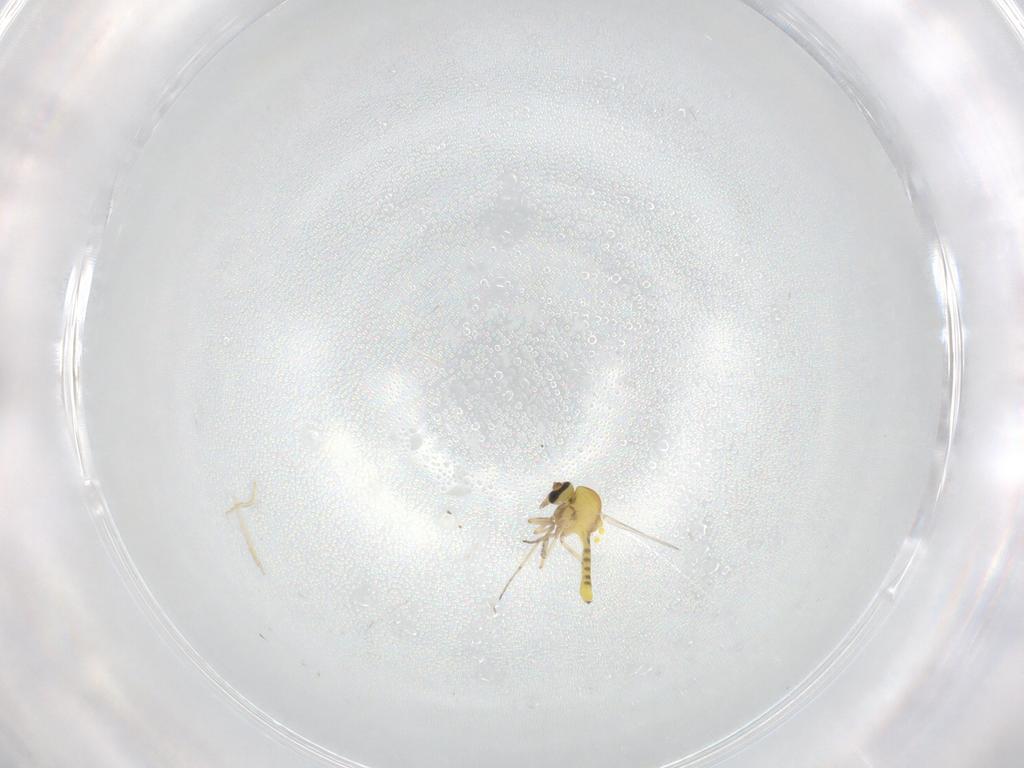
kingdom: Animalia
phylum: Arthropoda
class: Insecta
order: Diptera
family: Ceratopogonidae
